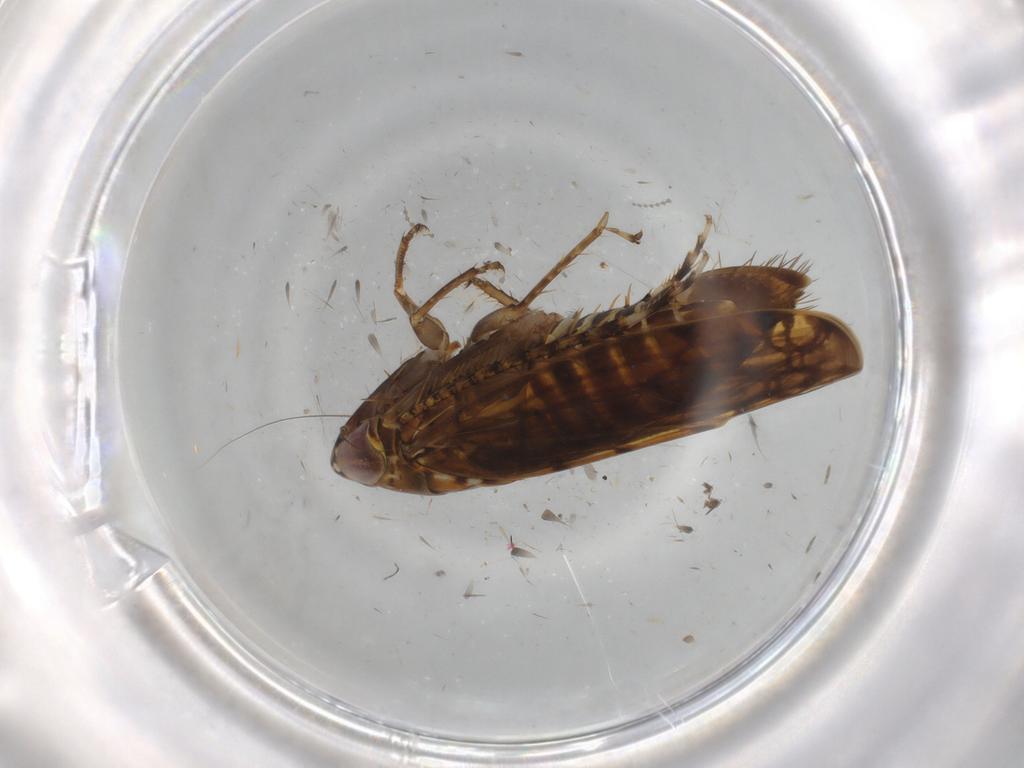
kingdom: Animalia
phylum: Arthropoda
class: Insecta
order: Hemiptera
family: Cicadellidae
